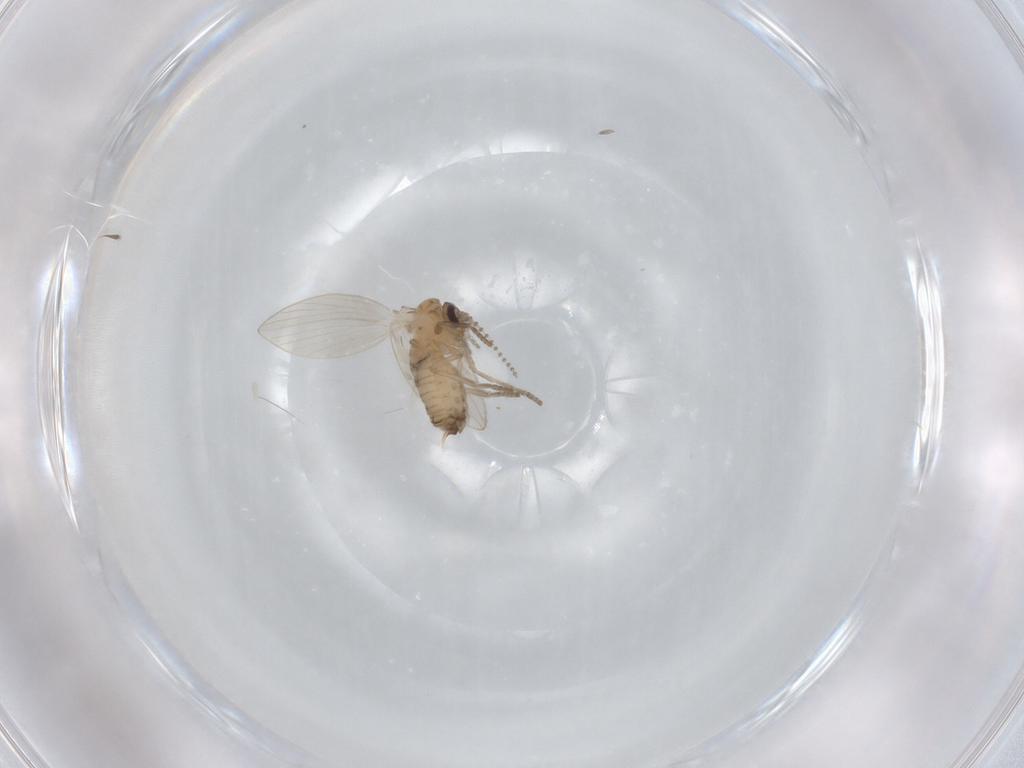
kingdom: Animalia
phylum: Arthropoda
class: Insecta
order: Diptera
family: Psychodidae
